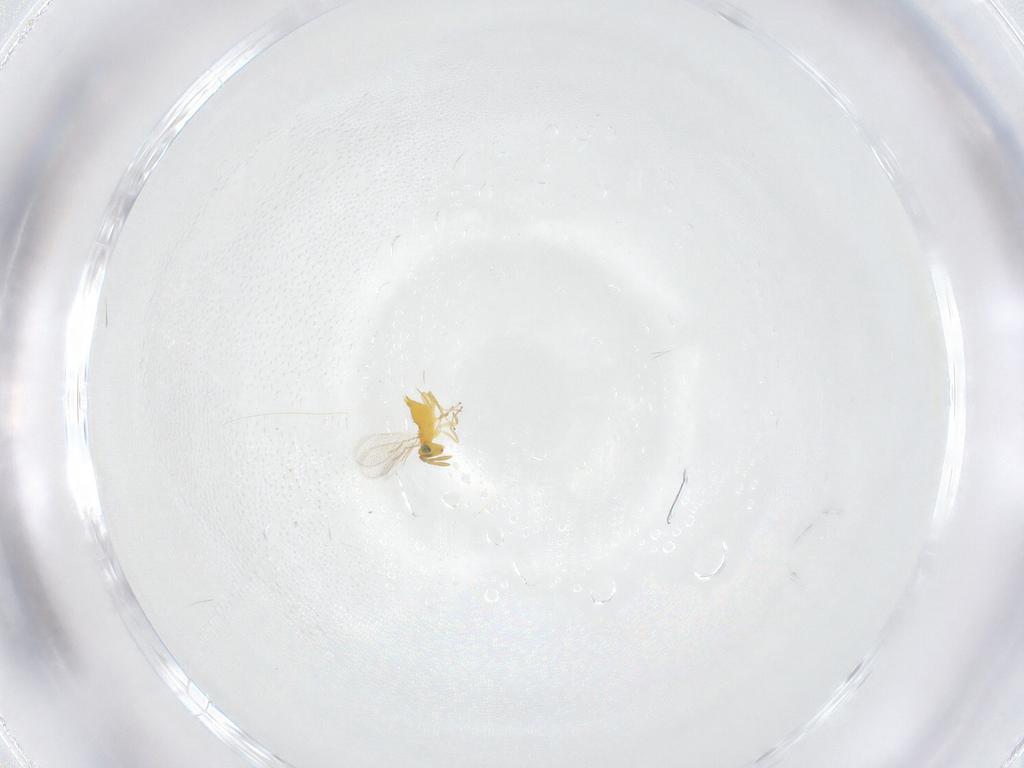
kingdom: Animalia
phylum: Arthropoda
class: Insecta
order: Hymenoptera
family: Aphelinidae
